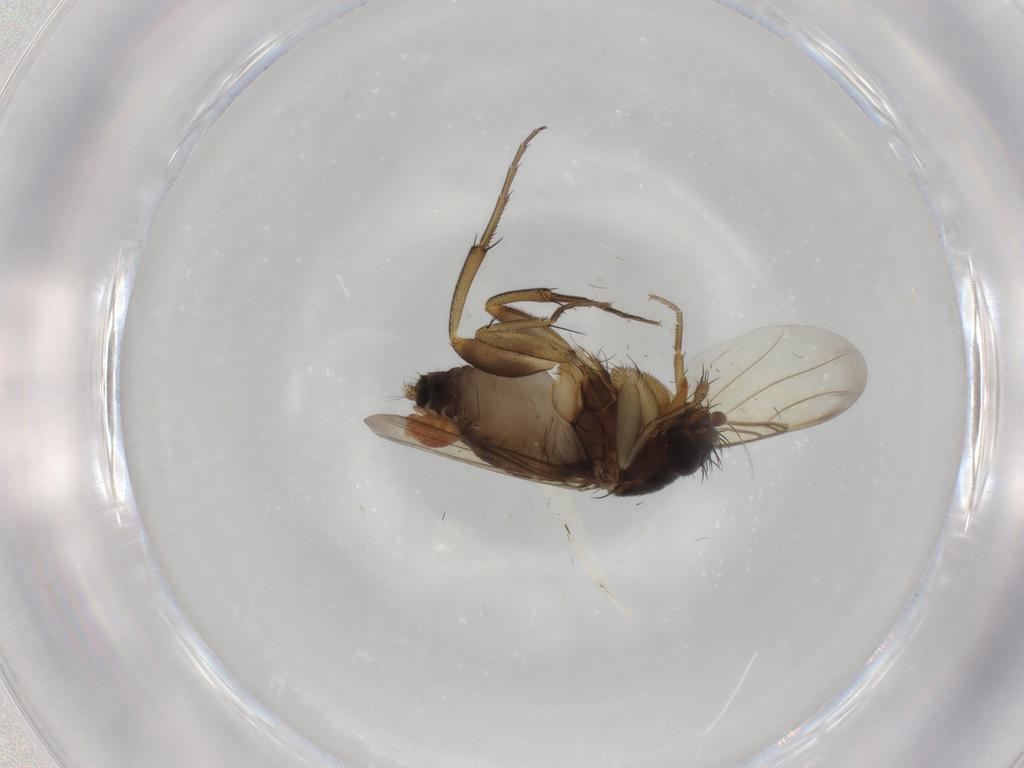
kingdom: Animalia
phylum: Arthropoda
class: Insecta
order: Diptera
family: Phoridae
